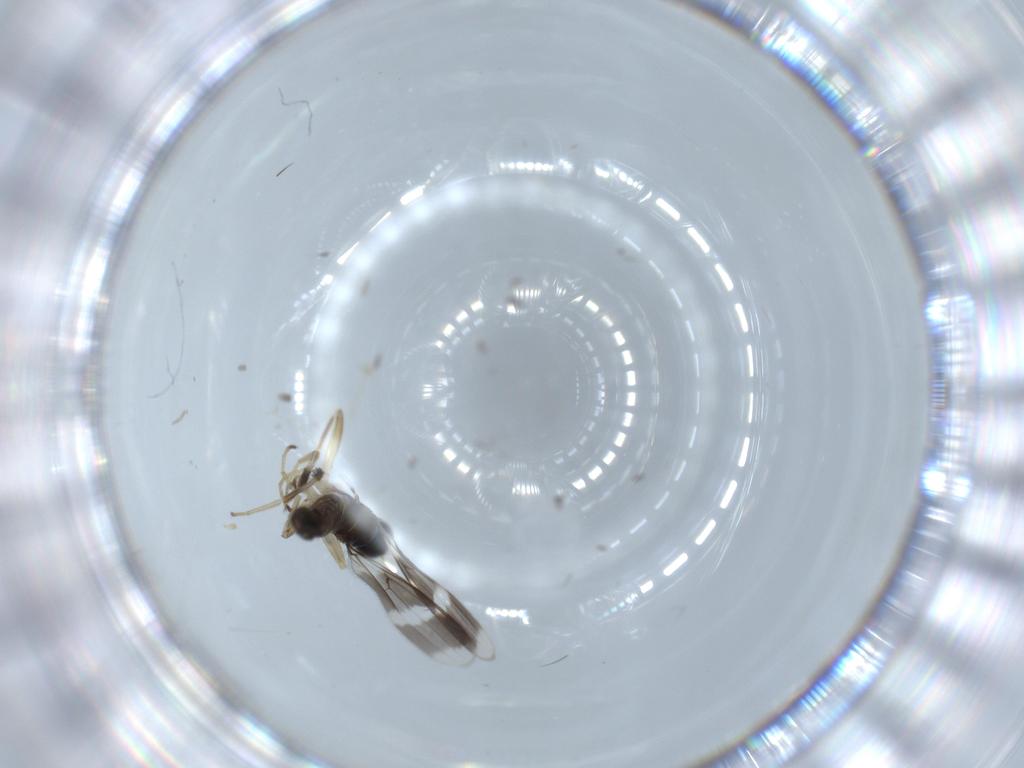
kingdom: Animalia
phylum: Arthropoda
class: Insecta
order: Diptera
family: Hybotidae
